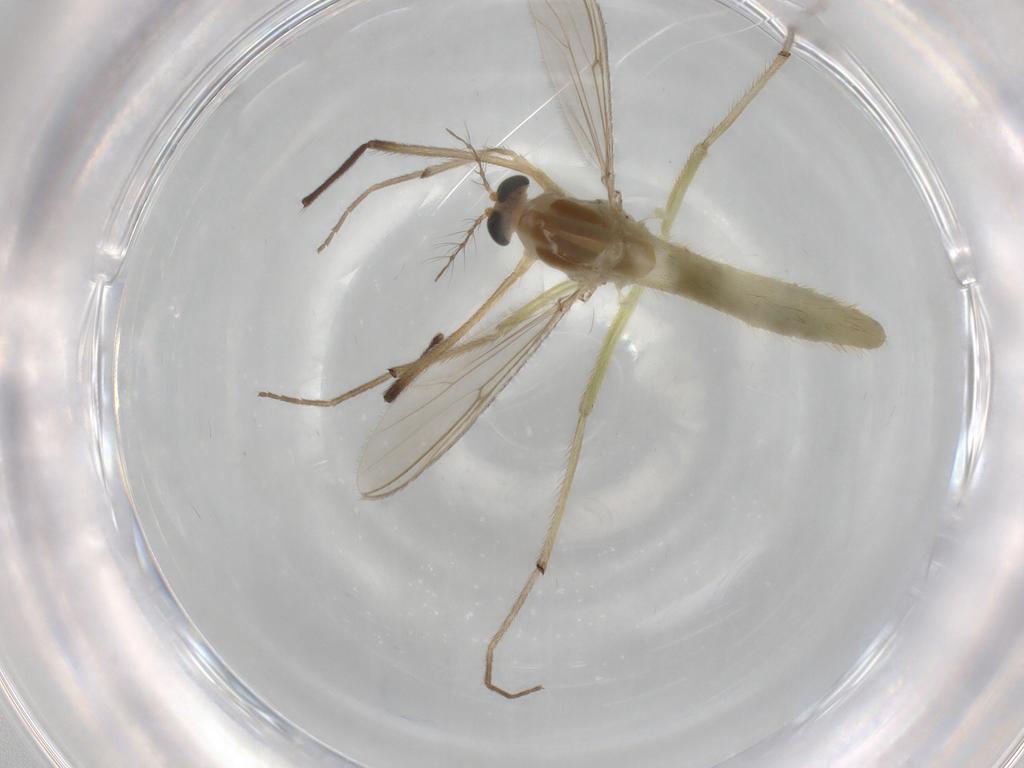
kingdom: Animalia
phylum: Arthropoda
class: Insecta
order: Diptera
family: Chironomidae
